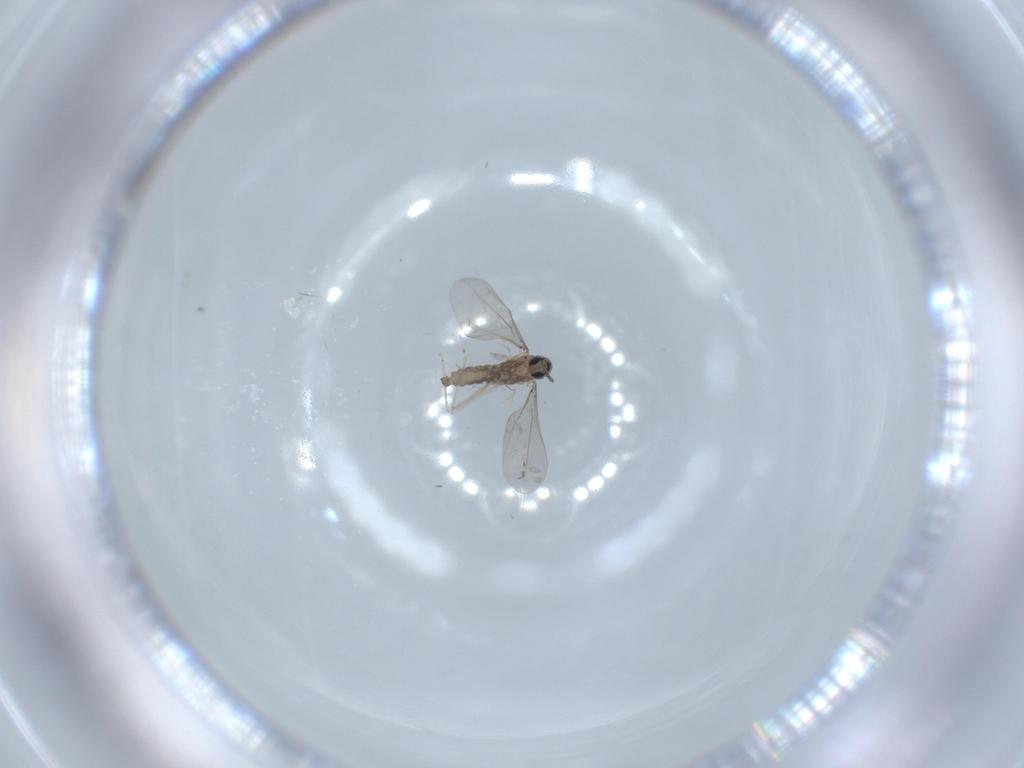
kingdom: Animalia
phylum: Arthropoda
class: Insecta
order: Diptera
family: Cecidomyiidae
